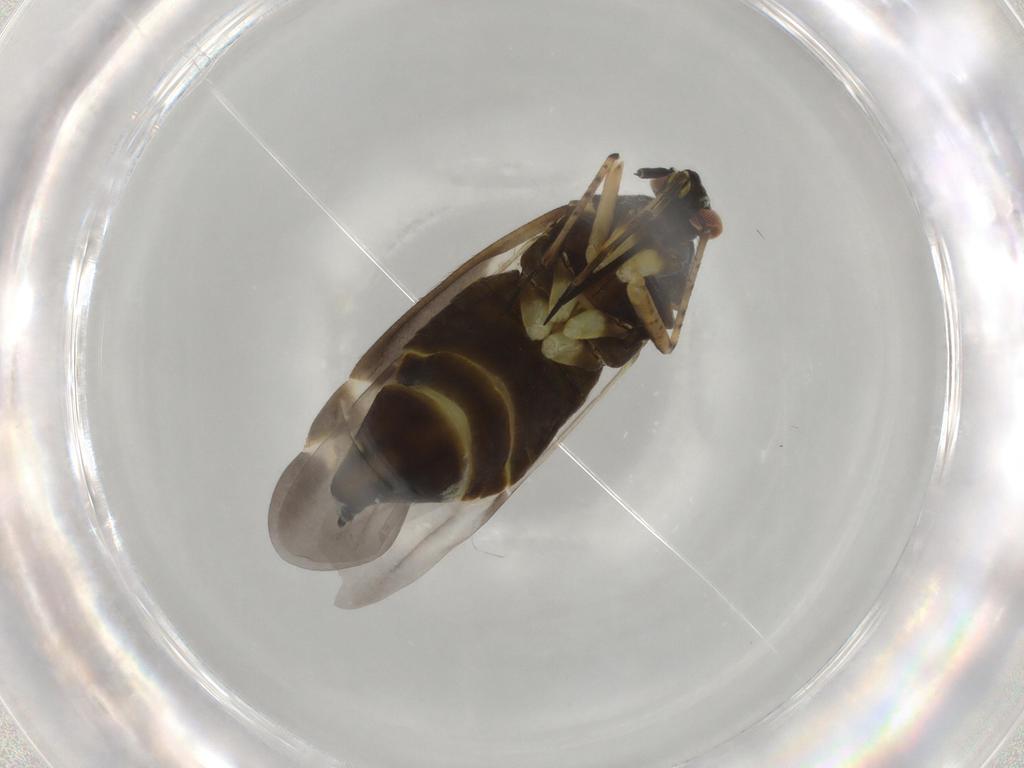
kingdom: Animalia
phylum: Arthropoda
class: Insecta
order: Hemiptera
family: Miridae
